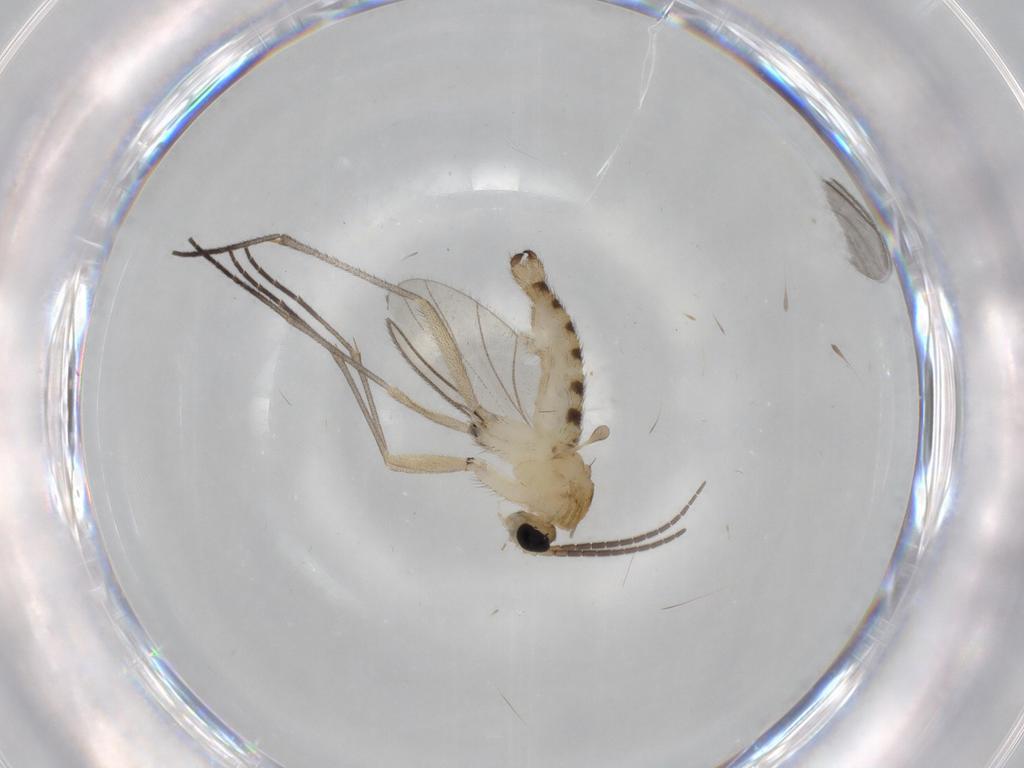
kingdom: Animalia
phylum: Arthropoda
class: Insecta
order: Diptera
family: Sciaridae
